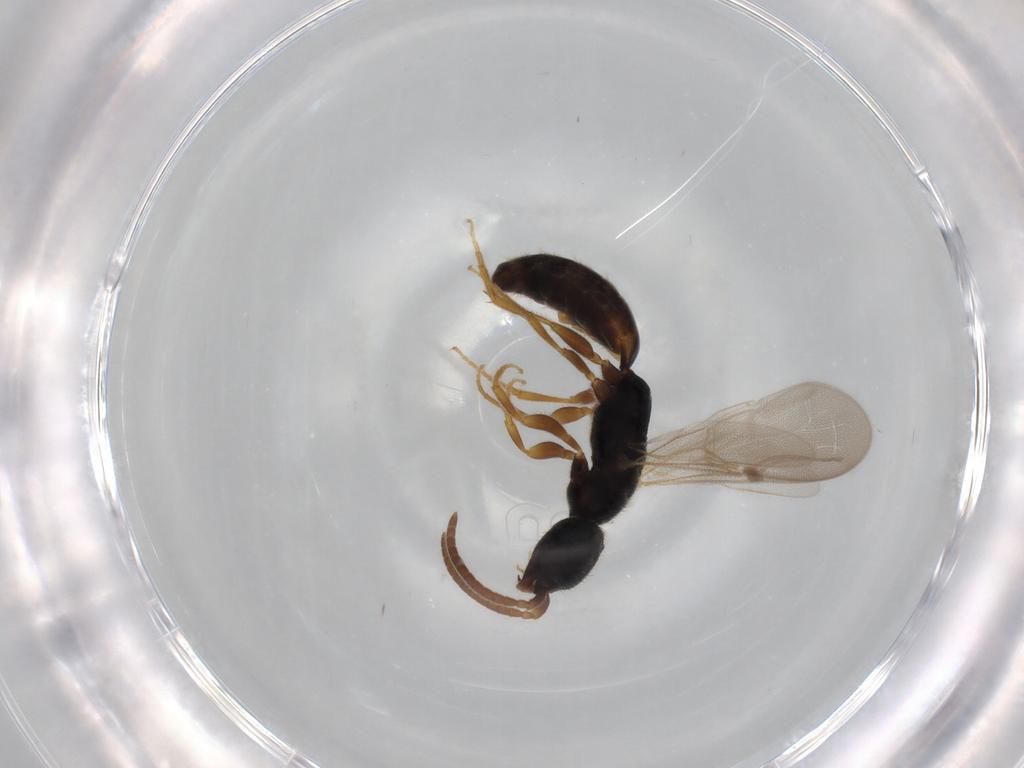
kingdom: Animalia
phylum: Arthropoda
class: Insecta
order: Hymenoptera
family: Bethylidae
